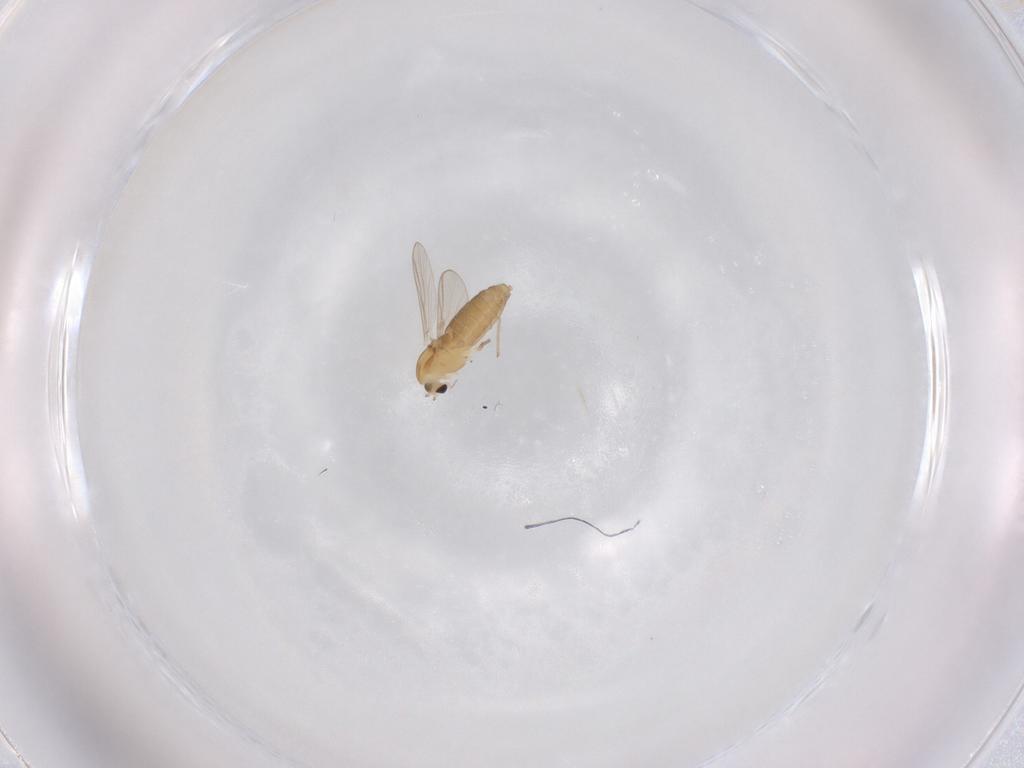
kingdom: Animalia
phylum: Arthropoda
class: Insecta
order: Diptera
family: Chironomidae
